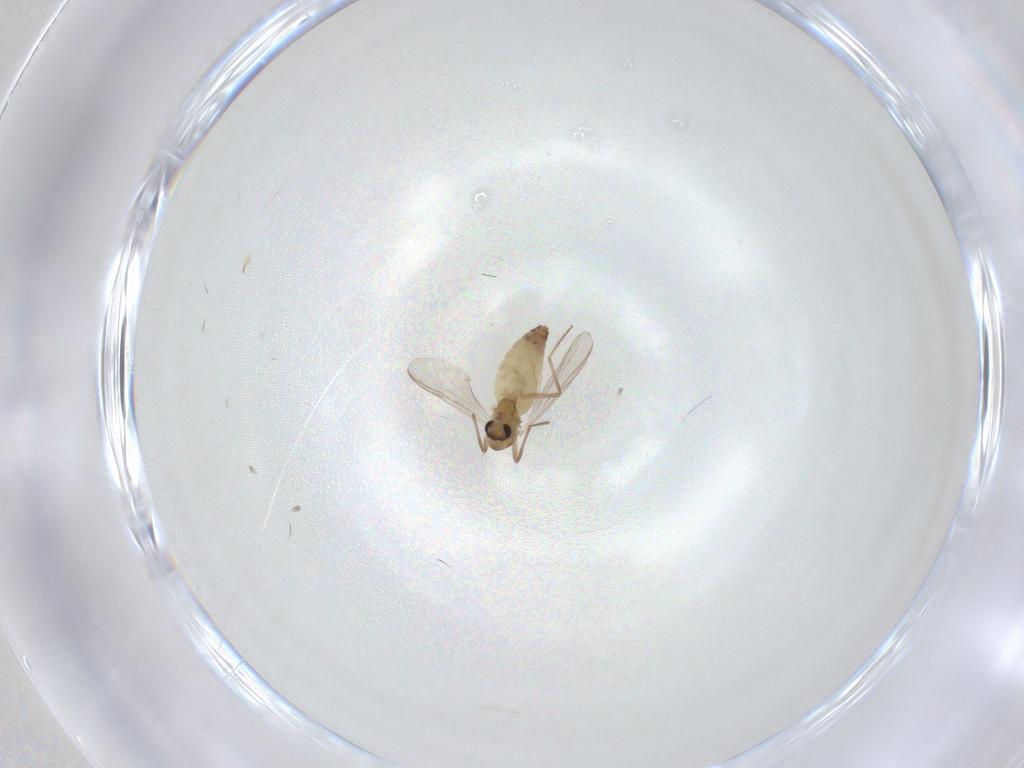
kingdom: Animalia
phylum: Arthropoda
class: Insecta
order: Diptera
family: Chironomidae
